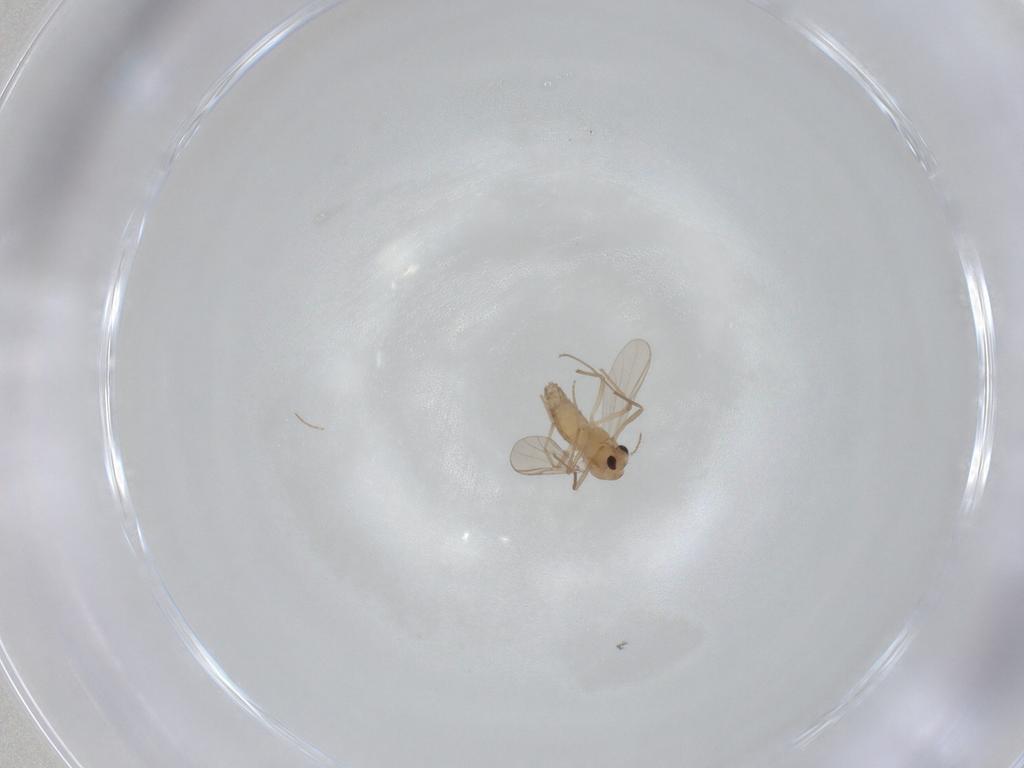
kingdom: Animalia
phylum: Arthropoda
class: Insecta
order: Diptera
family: Chironomidae
